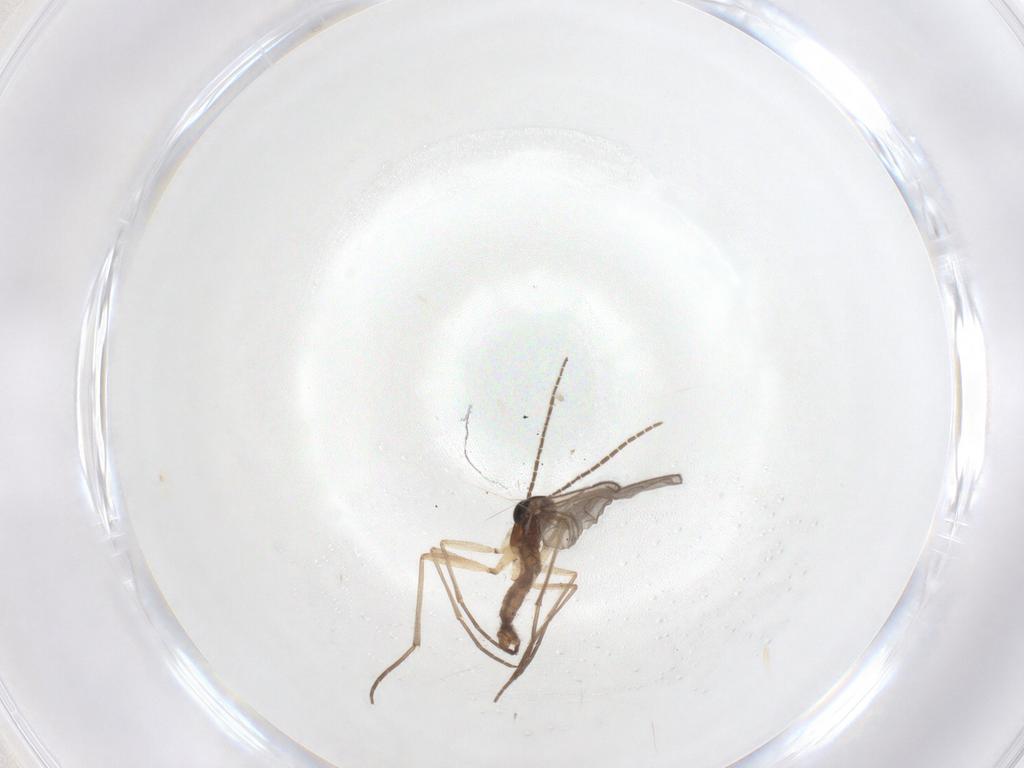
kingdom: Animalia
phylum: Arthropoda
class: Insecta
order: Diptera
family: Sciaridae
